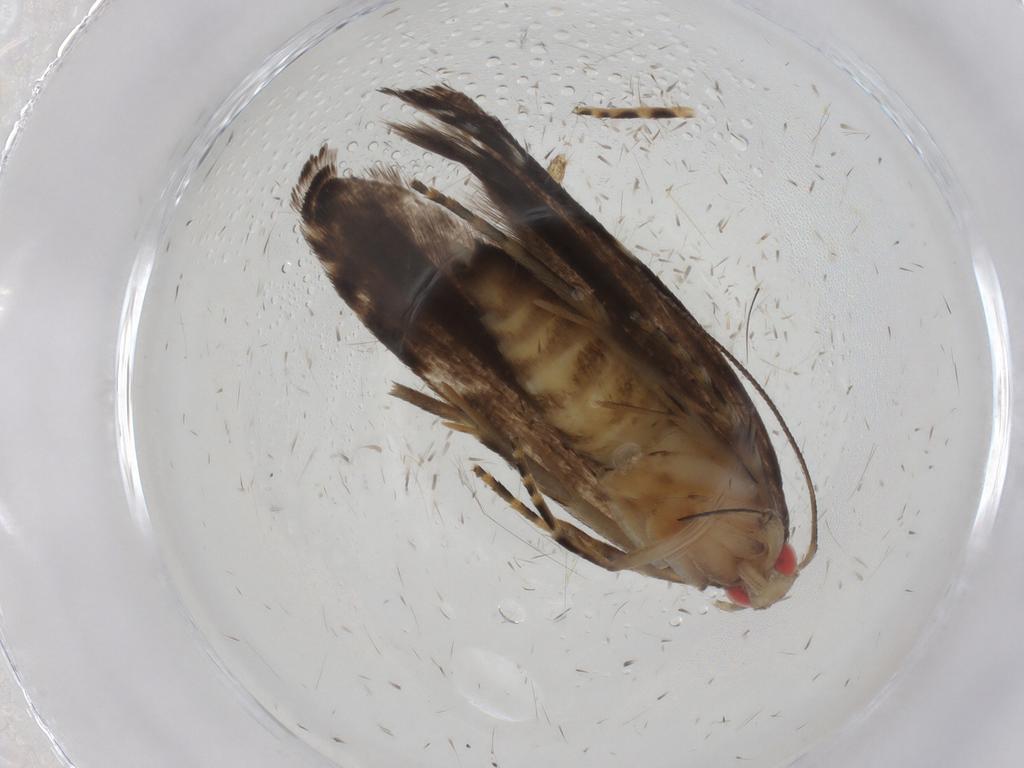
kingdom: Animalia
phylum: Arthropoda
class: Insecta
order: Lepidoptera
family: Gelechiidae
